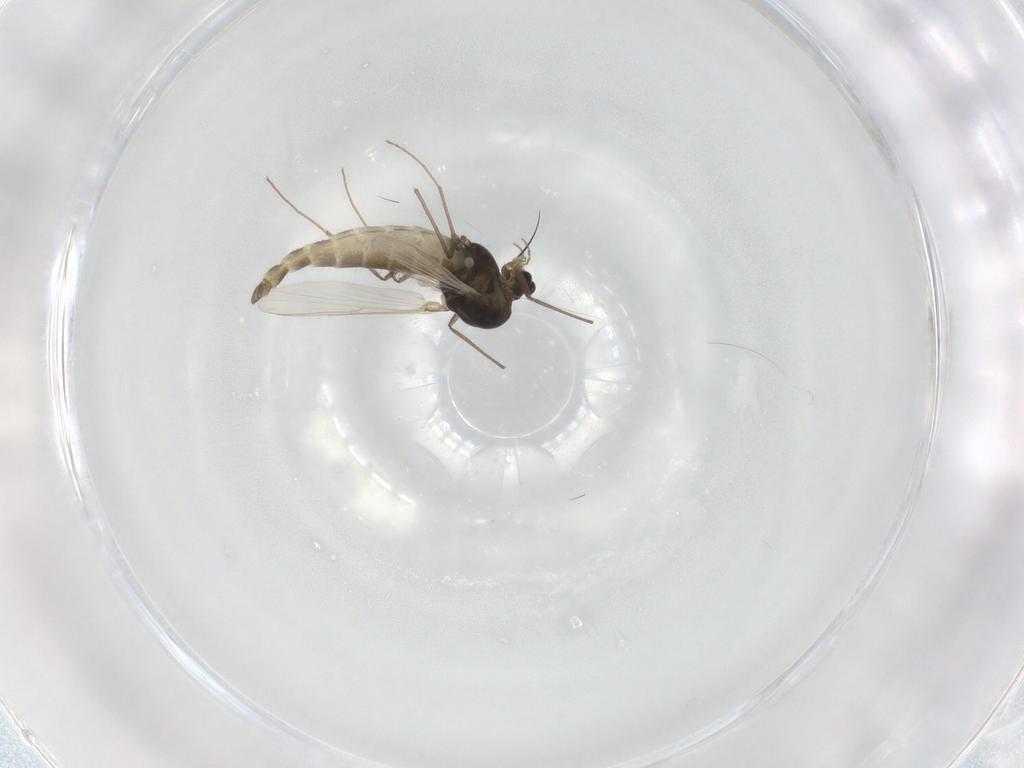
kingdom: Animalia
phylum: Arthropoda
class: Insecta
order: Diptera
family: Chironomidae
